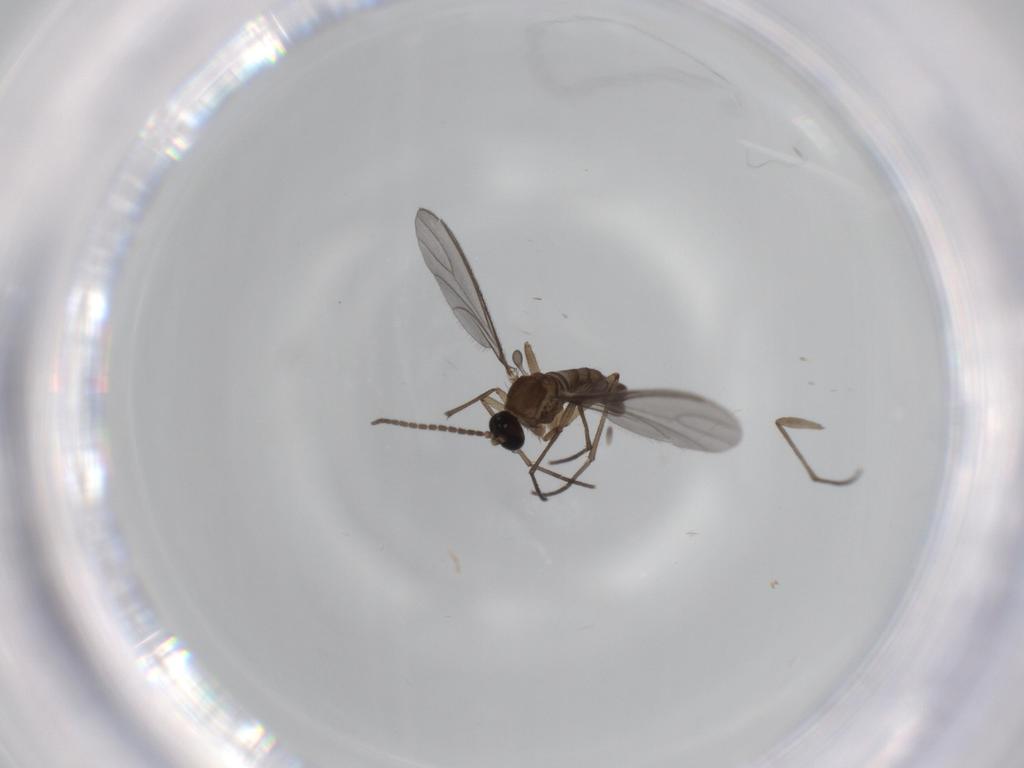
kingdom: Animalia
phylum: Arthropoda
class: Insecta
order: Diptera
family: Sciaridae
